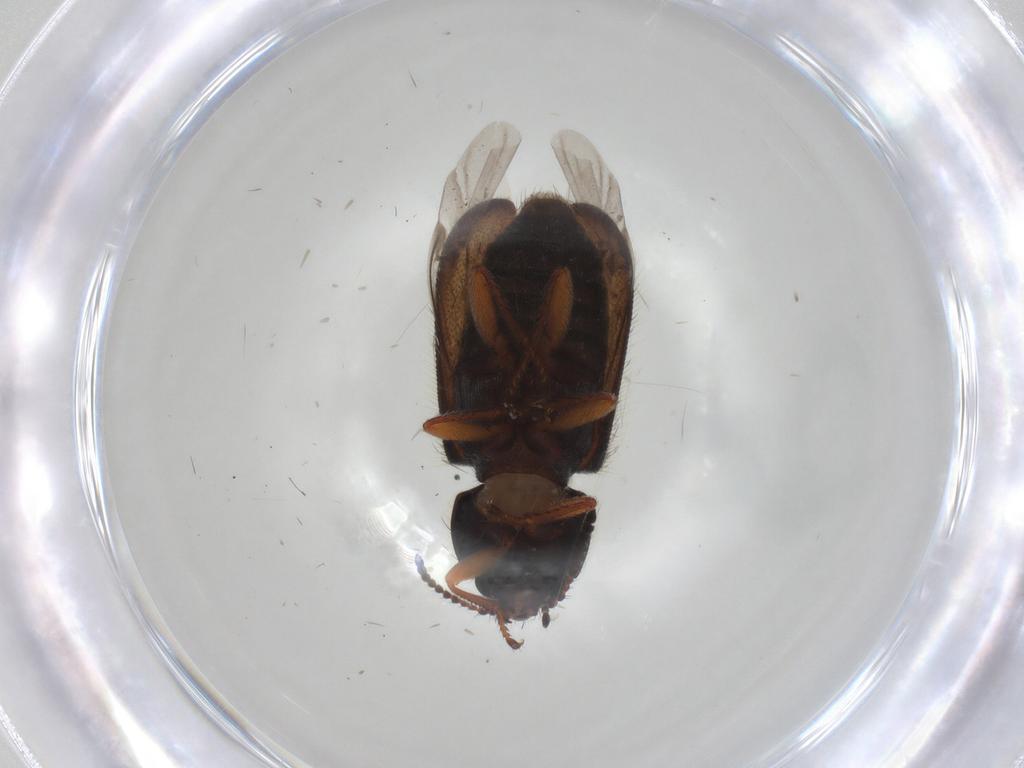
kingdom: Animalia
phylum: Arthropoda
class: Insecta
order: Coleoptera
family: Melyridae
